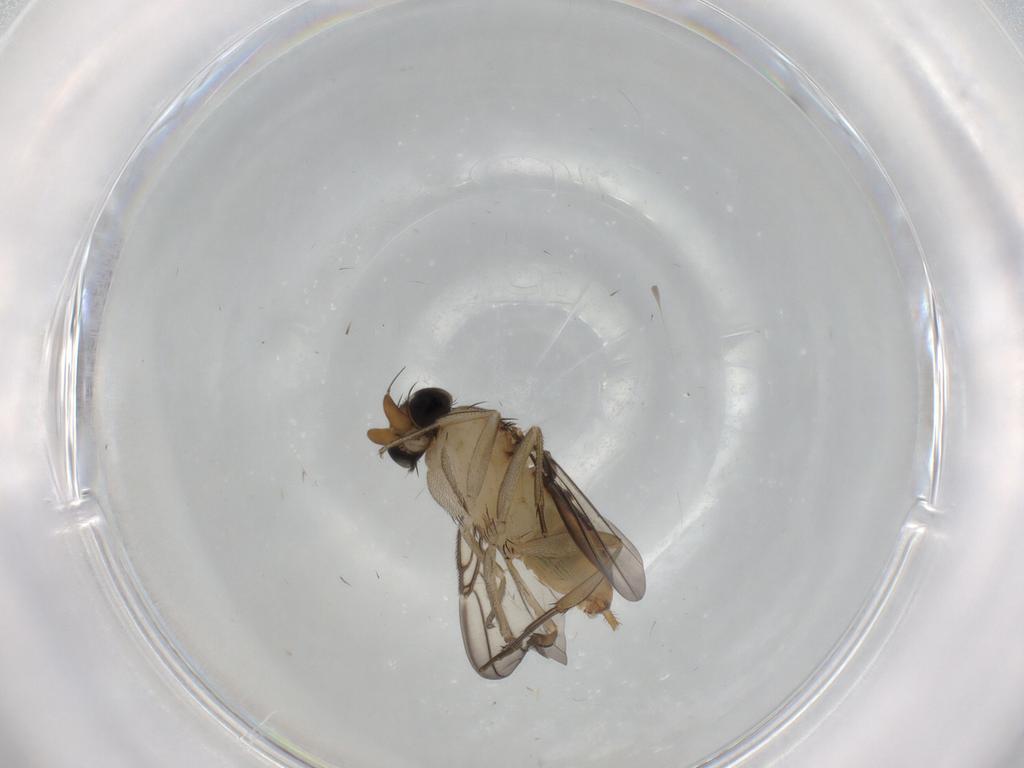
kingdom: Animalia
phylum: Arthropoda
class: Insecta
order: Diptera
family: Phoridae
